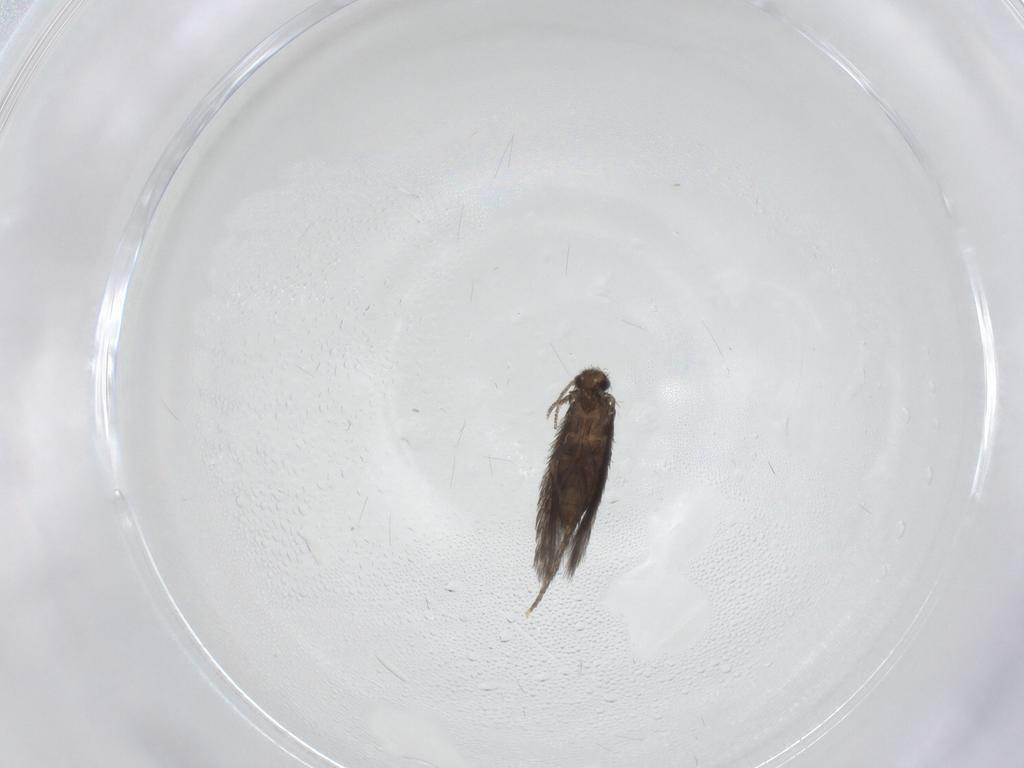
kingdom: Animalia
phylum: Arthropoda
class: Insecta
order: Trichoptera
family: Hydroptilidae
